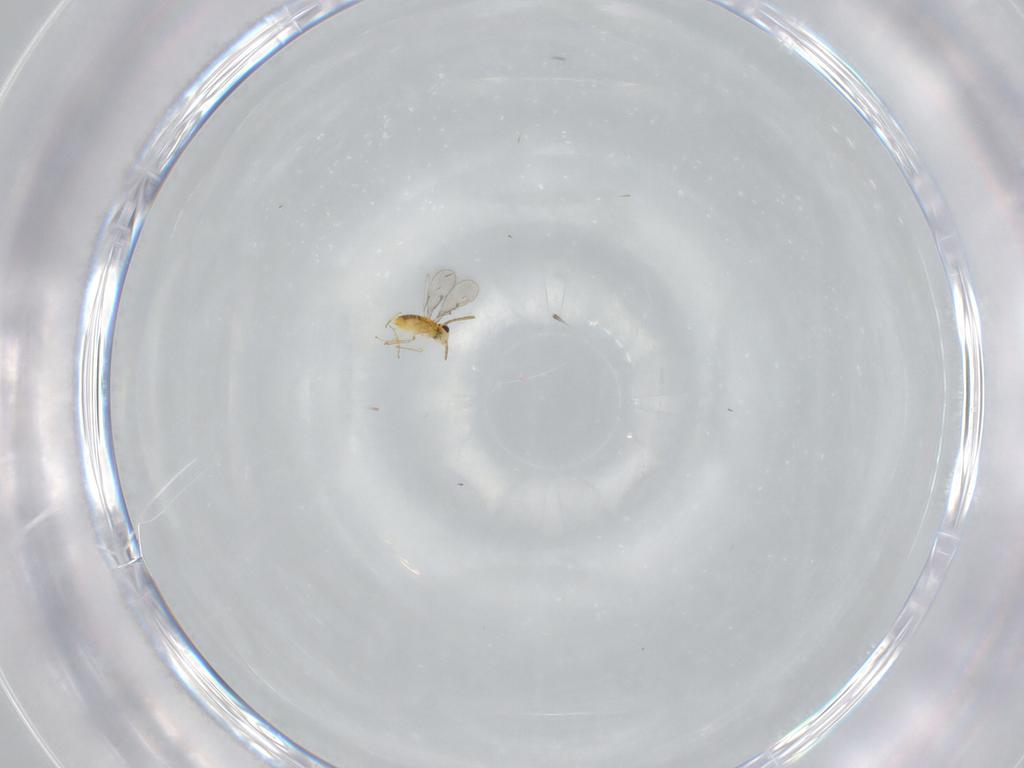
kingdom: Animalia
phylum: Arthropoda
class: Insecta
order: Hymenoptera
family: Aphelinidae
